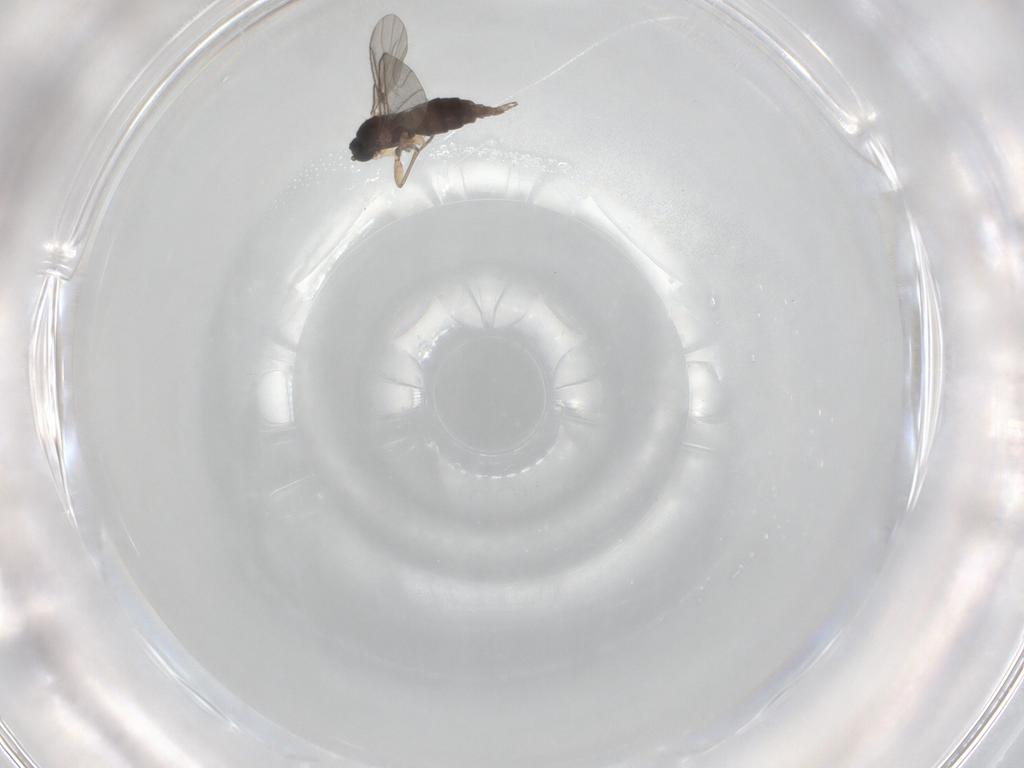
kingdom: Animalia
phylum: Arthropoda
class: Insecta
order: Diptera
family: Sciaridae
